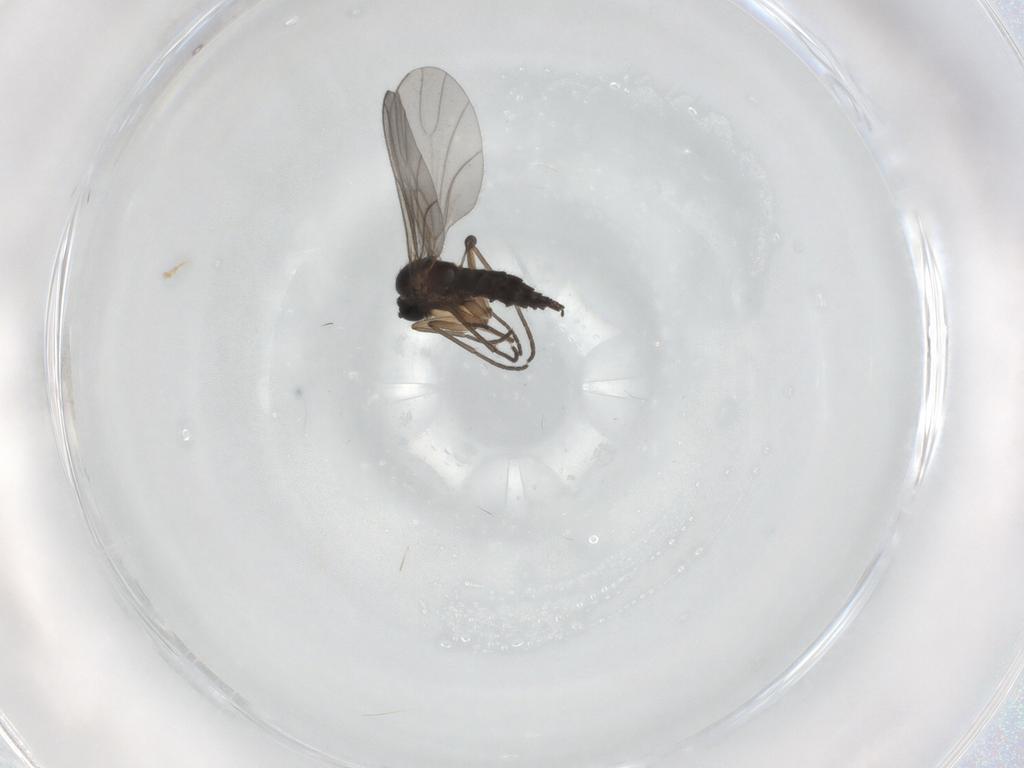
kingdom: Animalia
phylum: Arthropoda
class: Insecta
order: Diptera
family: Sciaridae
